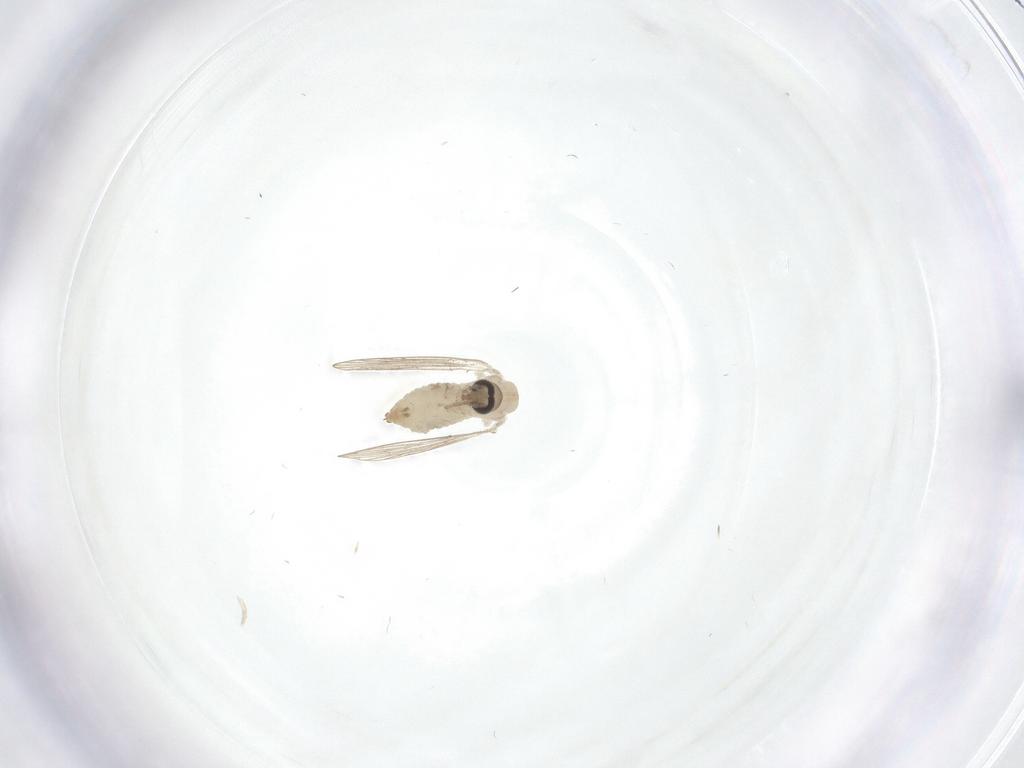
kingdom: Animalia
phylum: Arthropoda
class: Insecta
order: Diptera
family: Psychodidae
